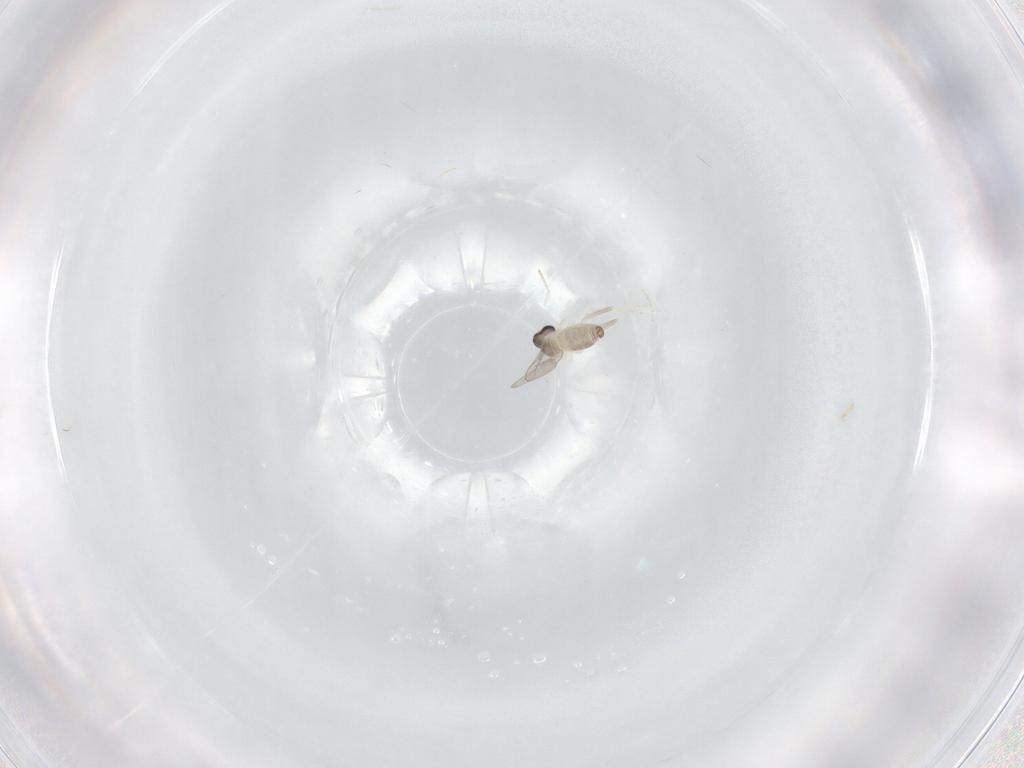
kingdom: Animalia
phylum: Arthropoda
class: Insecta
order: Diptera
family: Cecidomyiidae
